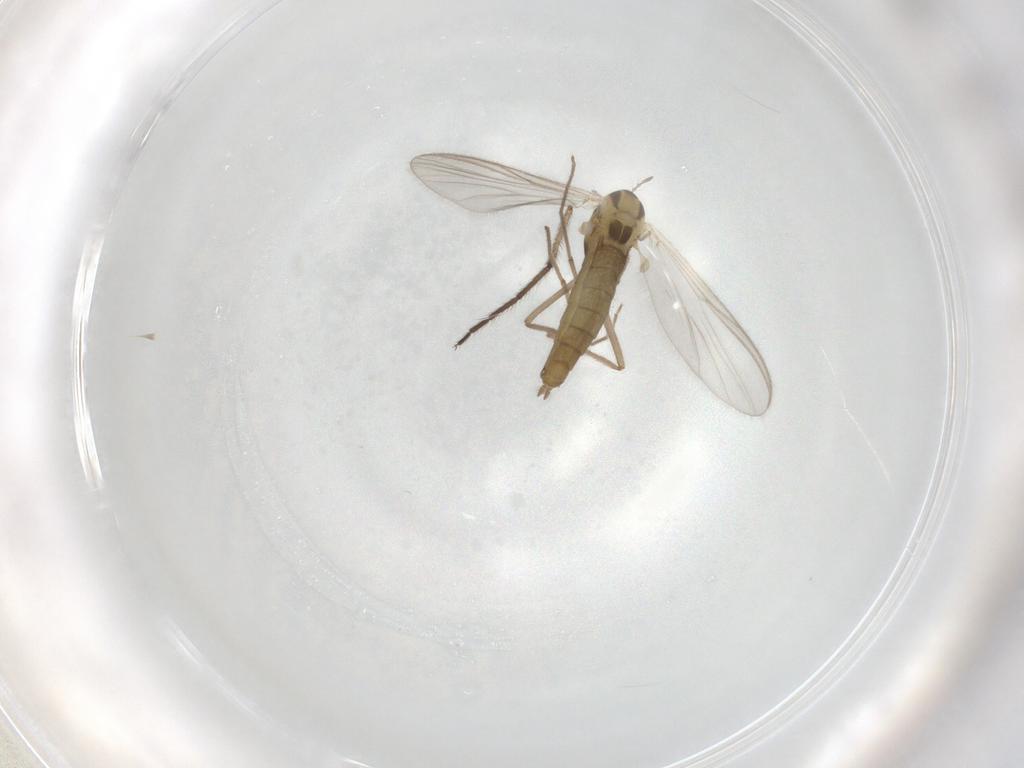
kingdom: Animalia
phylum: Arthropoda
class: Insecta
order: Diptera
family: Chironomidae
